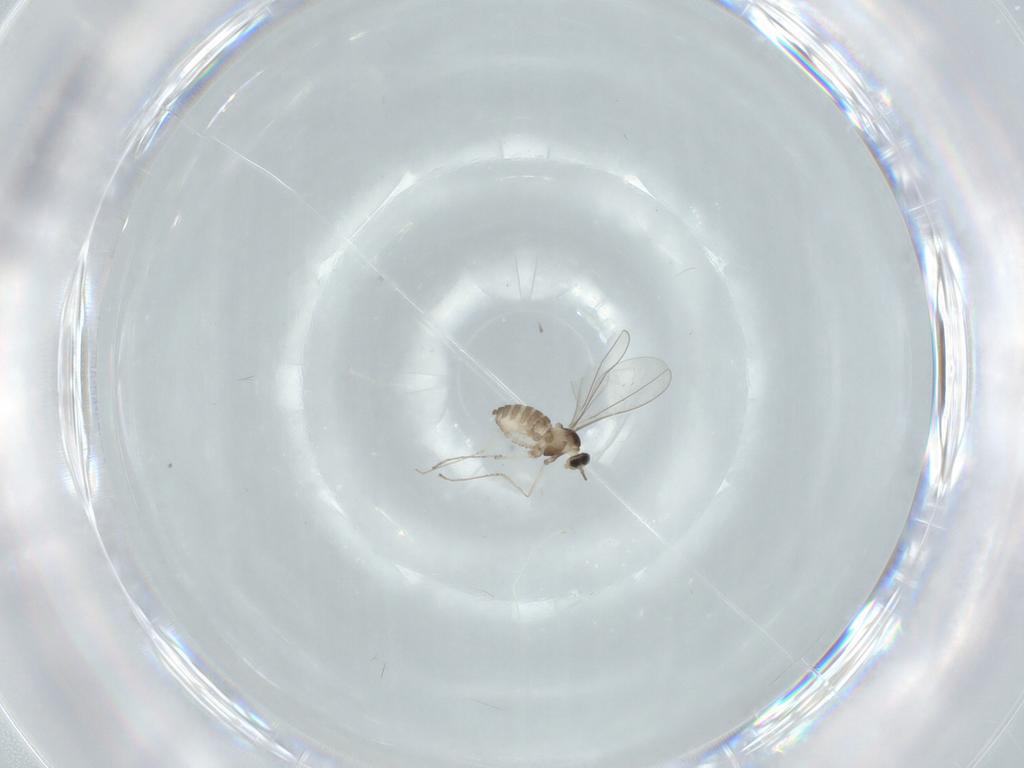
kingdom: Animalia
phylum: Arthropoda
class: Insecta
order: Diptera
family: Cecidomyiidae
